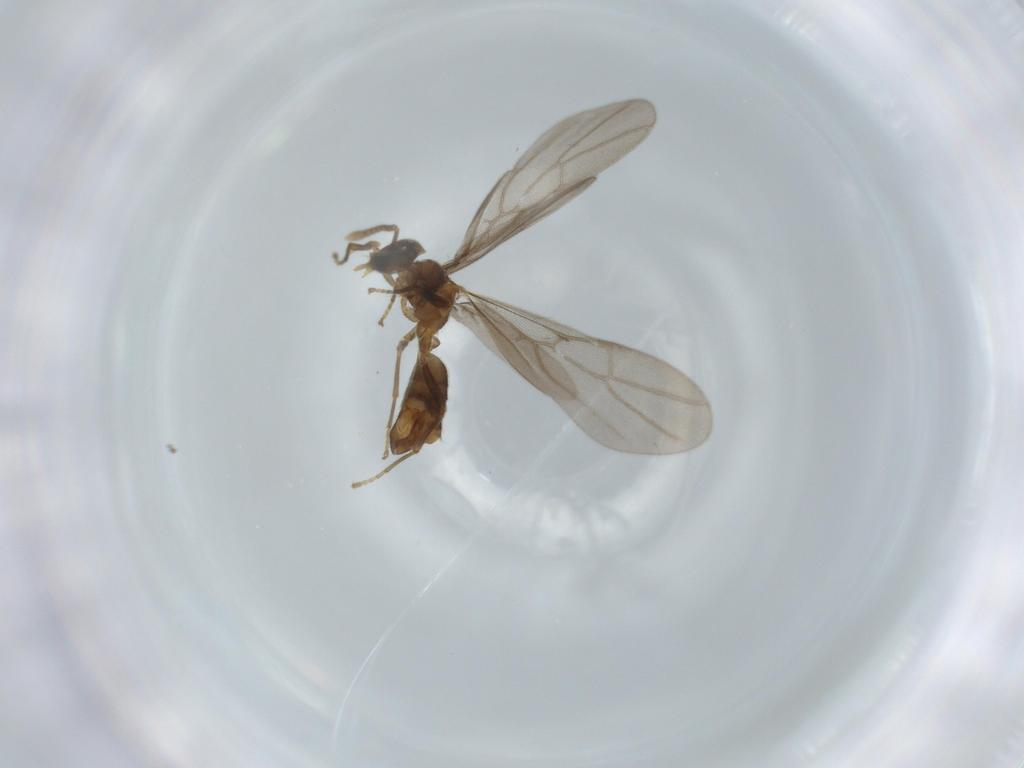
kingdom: Animalia
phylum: Arthropoda
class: Insecta
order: Hymenoptera
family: Formicidae
